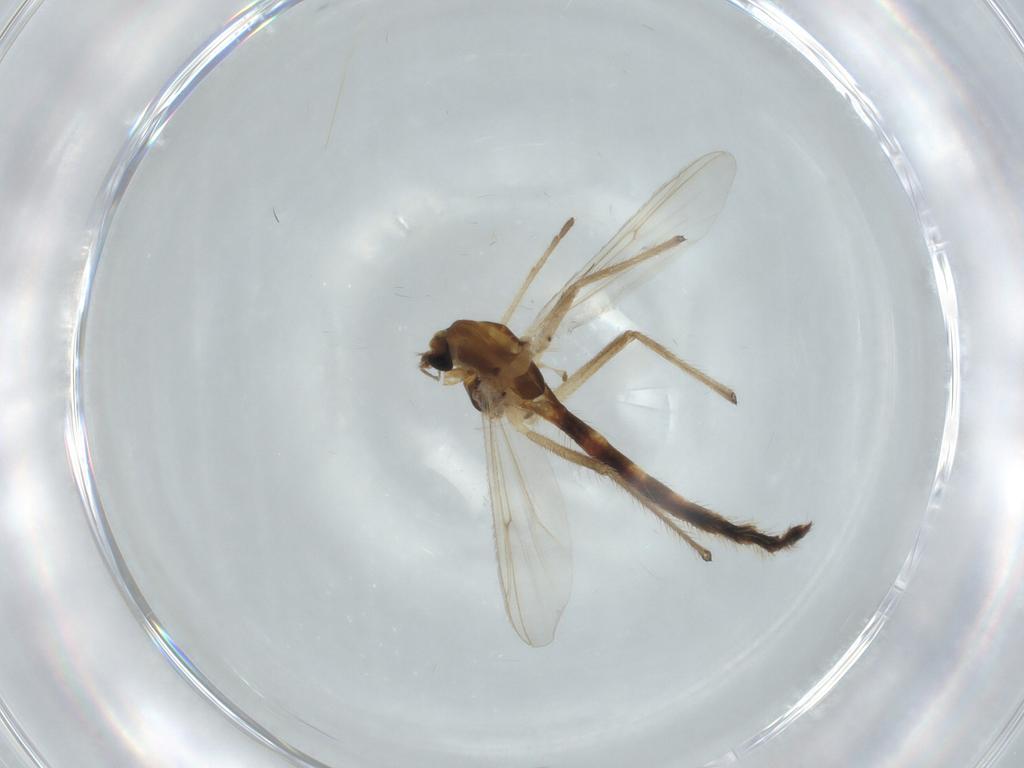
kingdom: Animalia
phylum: Arthropoda
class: Insecta
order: Diptera
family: Chironomidae
